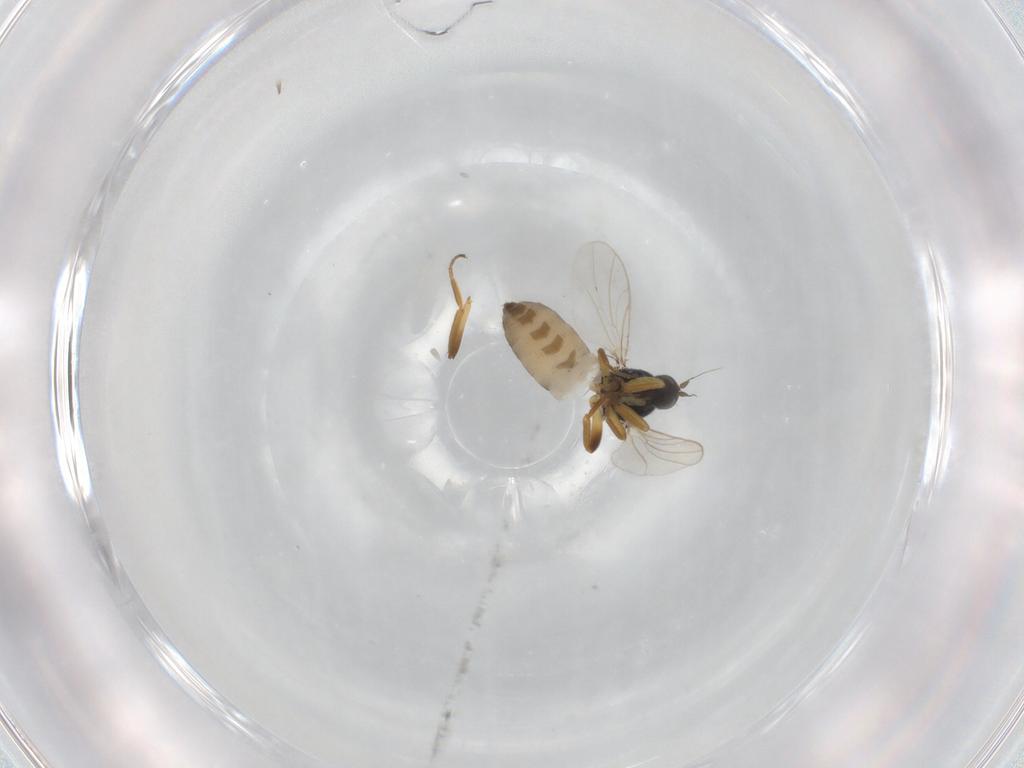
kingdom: Animalia
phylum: Arthropoda
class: Insecta
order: Diptera
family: Hybotidae
